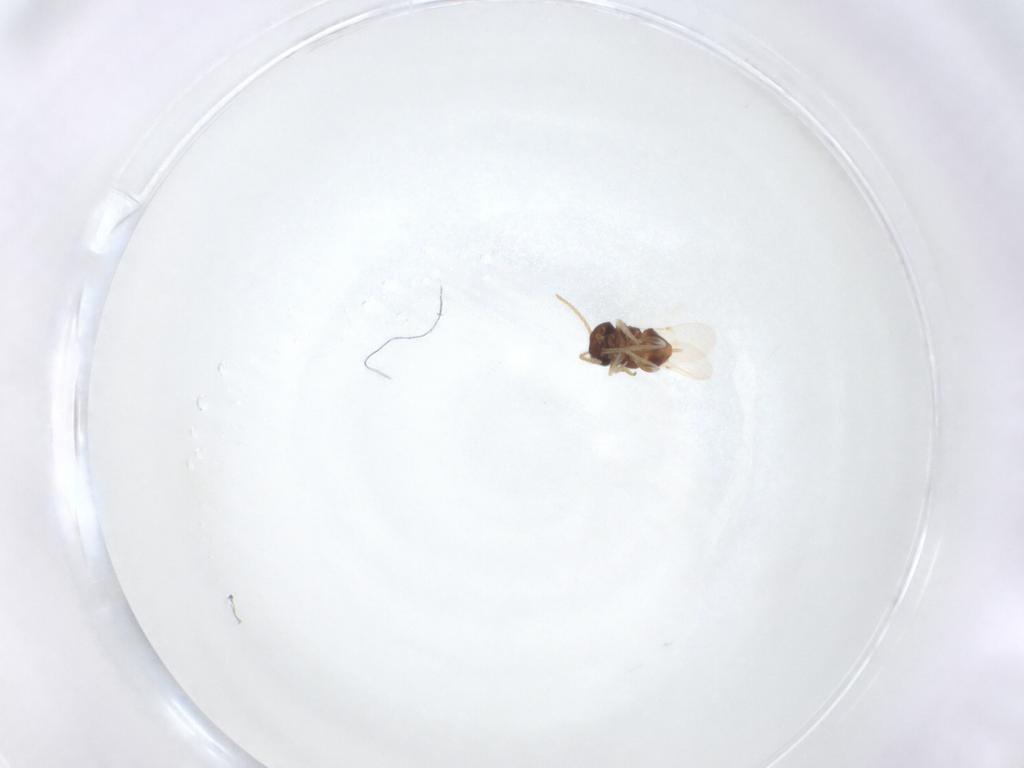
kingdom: Animalia
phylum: Arthropoda
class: Insecta
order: Hymenoptera
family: Encyrtidae
